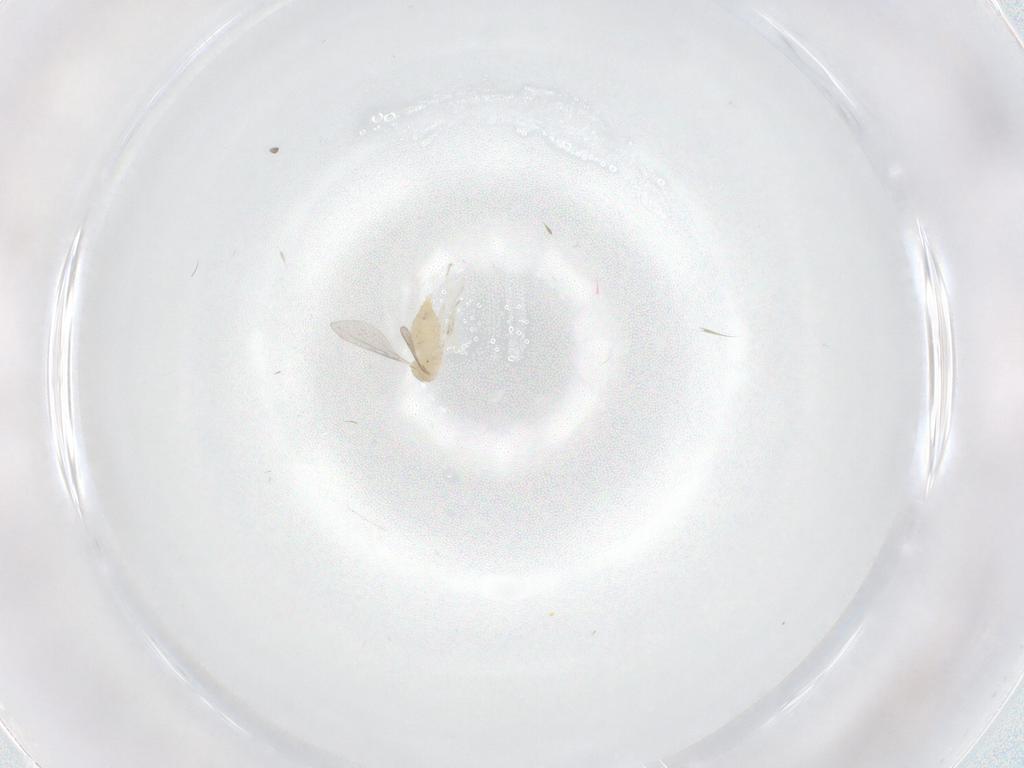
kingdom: Animalia
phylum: Arthropoda
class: Insecta
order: Diptera
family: Cecidomyiidae
